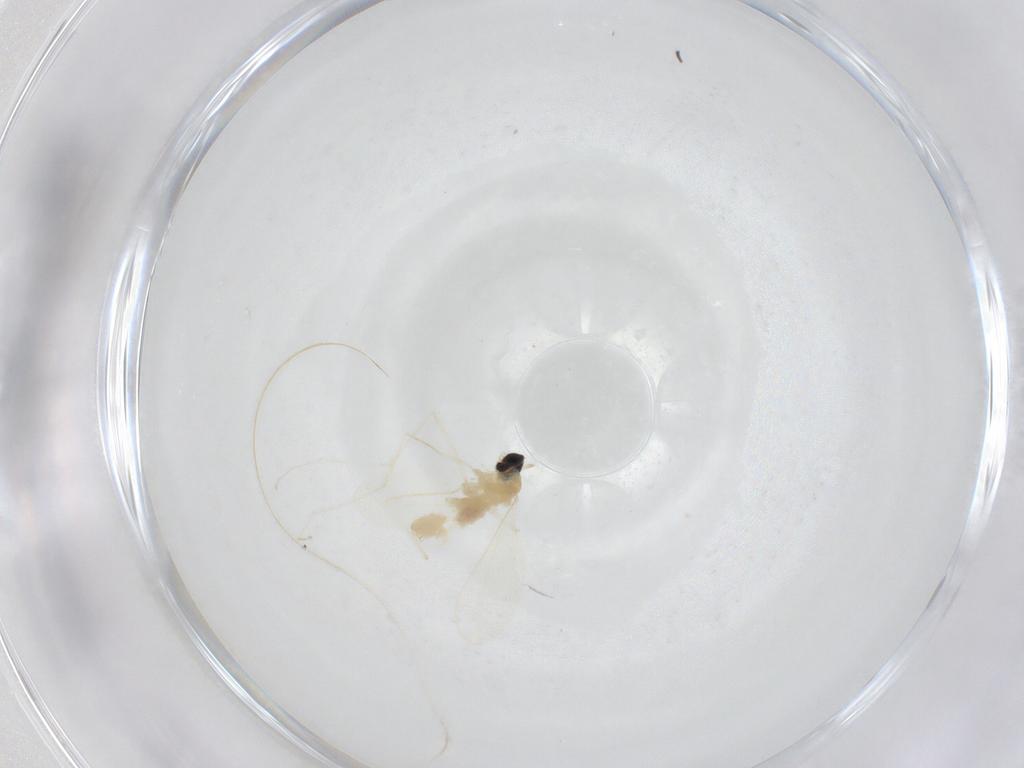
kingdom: Animalia
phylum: Arthropoda
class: Insecta
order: Diptera
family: Cecidomyiidae
